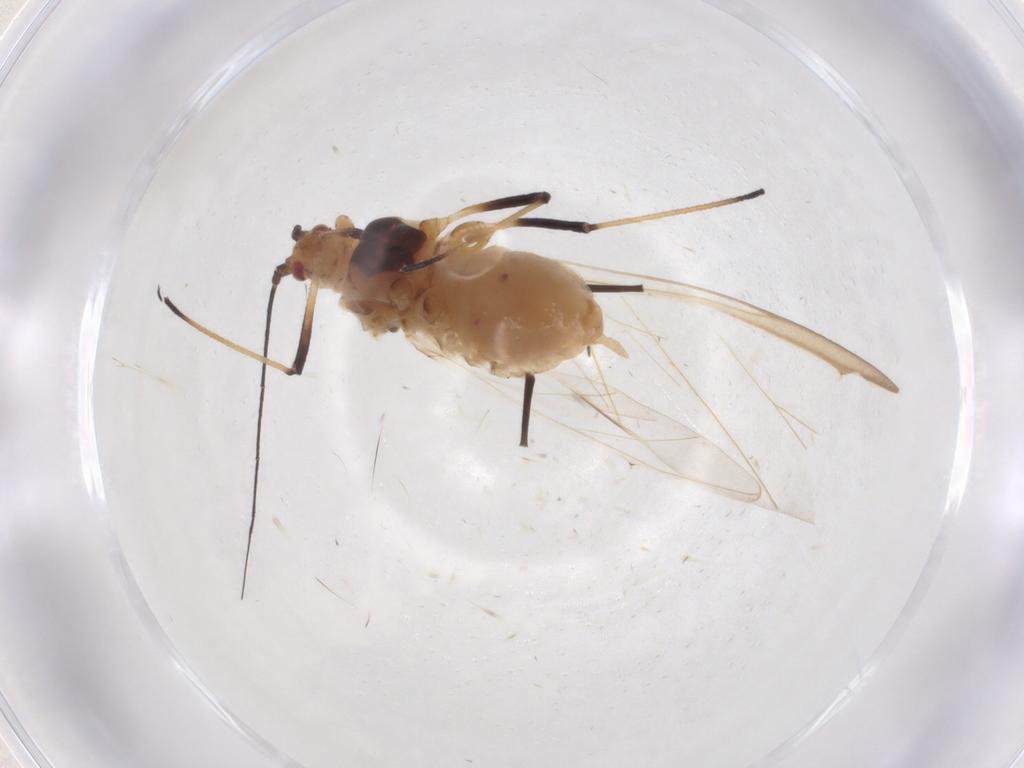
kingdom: Animalia
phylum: Arthropoda
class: Insecta
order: Hemiptera
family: Aphididae
